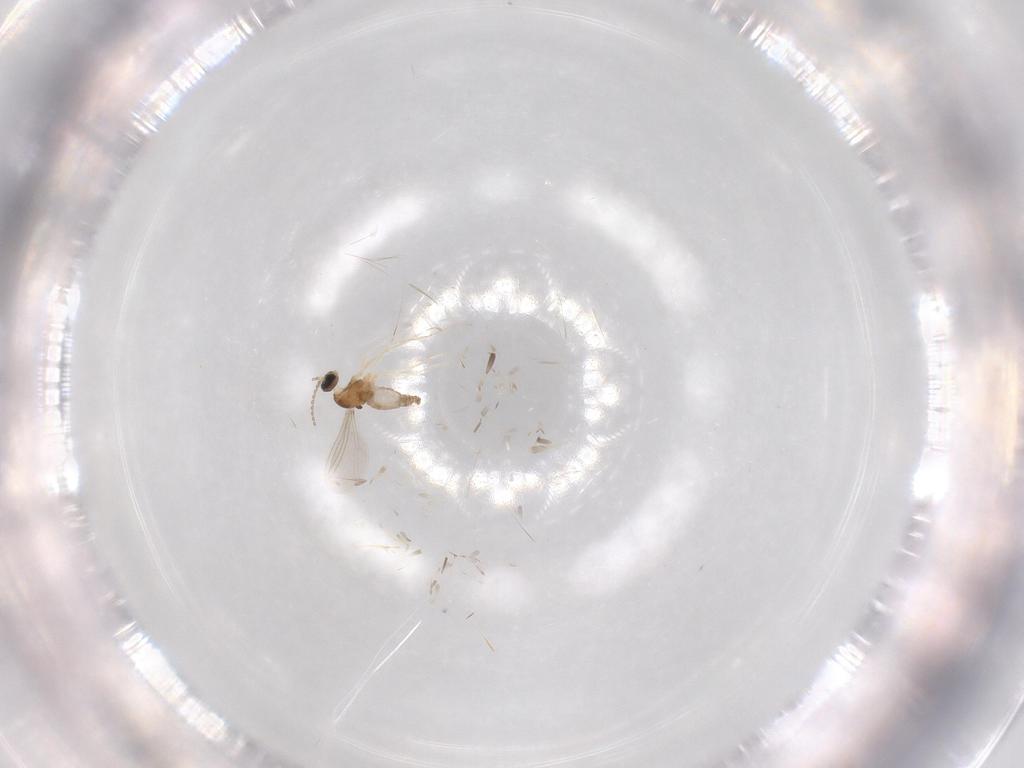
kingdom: Animalia
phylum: Arthropoda
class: Insecta
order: Diptera
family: Cecidomyiidae
